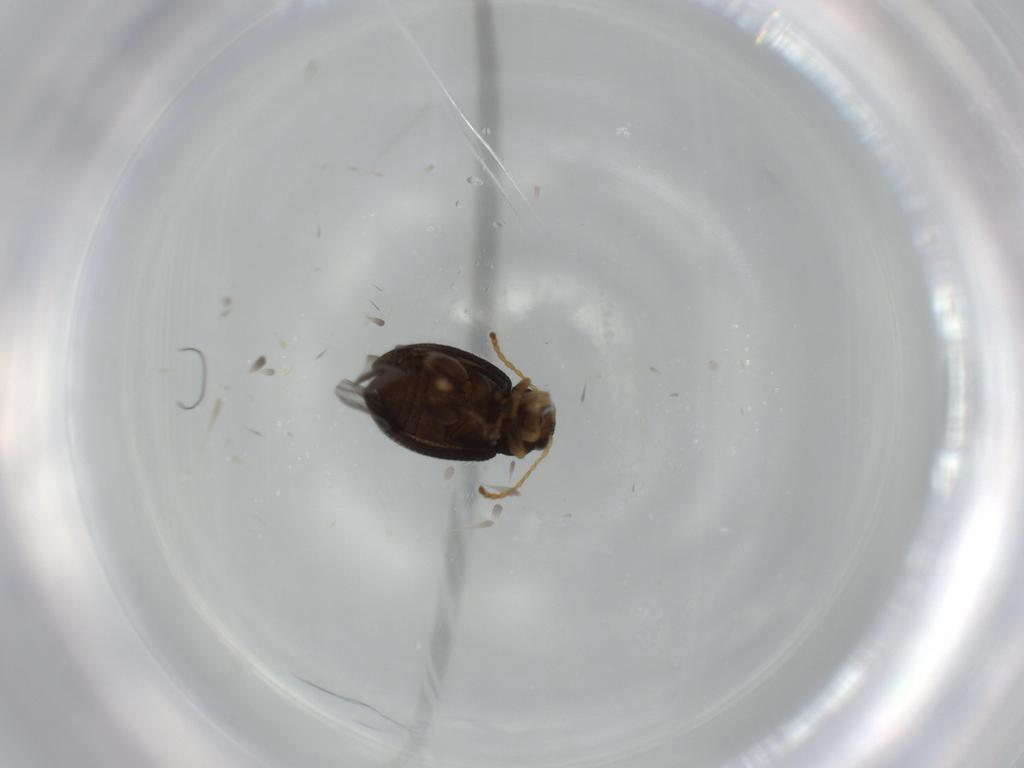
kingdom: Animalia
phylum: Arthropoda
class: Insecta
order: Coleoptera
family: Chrysomelidae
